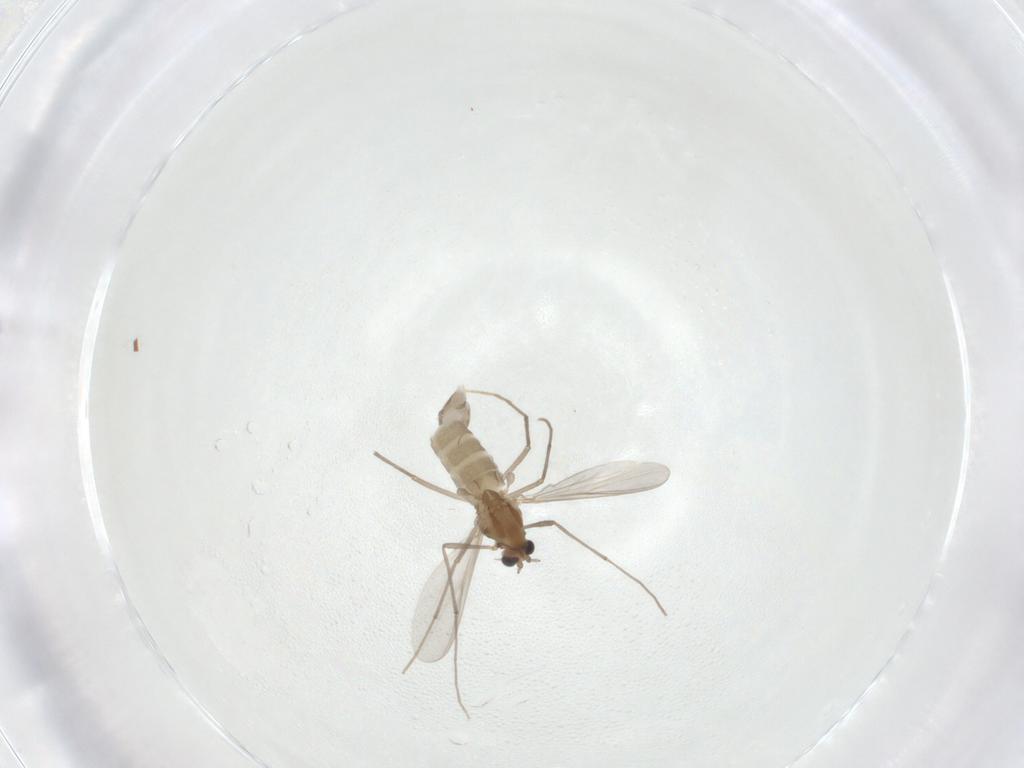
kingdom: Animalia
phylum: Arthropoda
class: Insecta
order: Diptera
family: Chironomidae
